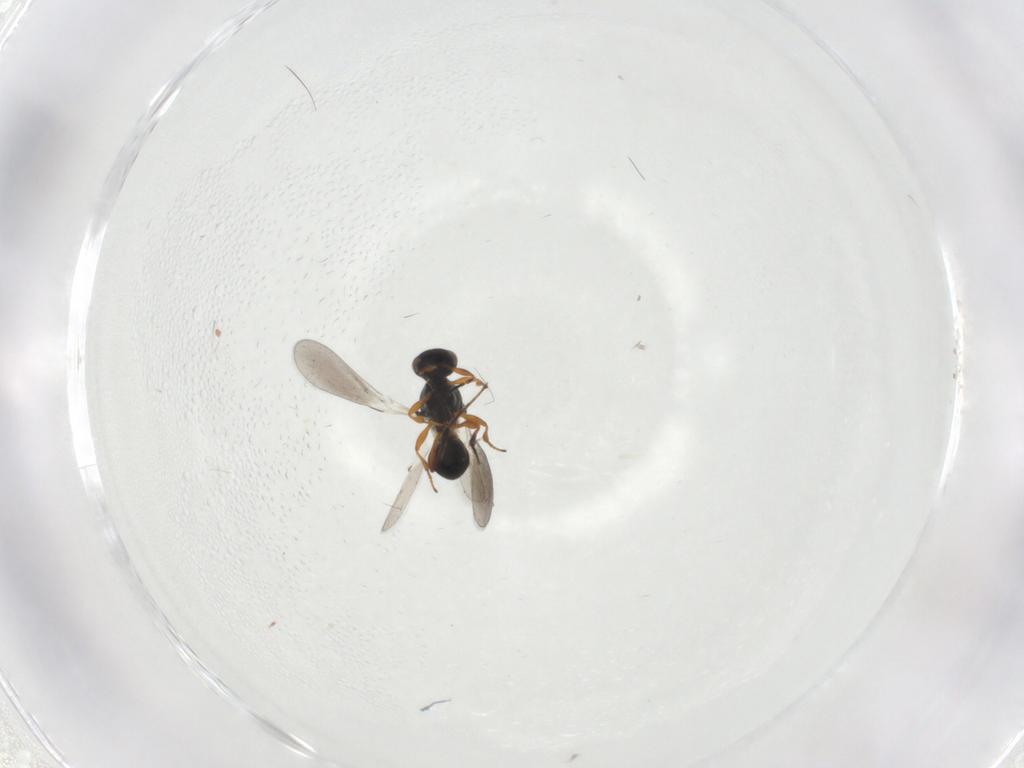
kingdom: Animalia
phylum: Arthropoda
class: Insecta
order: Hymenoptera
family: Platygastridae
